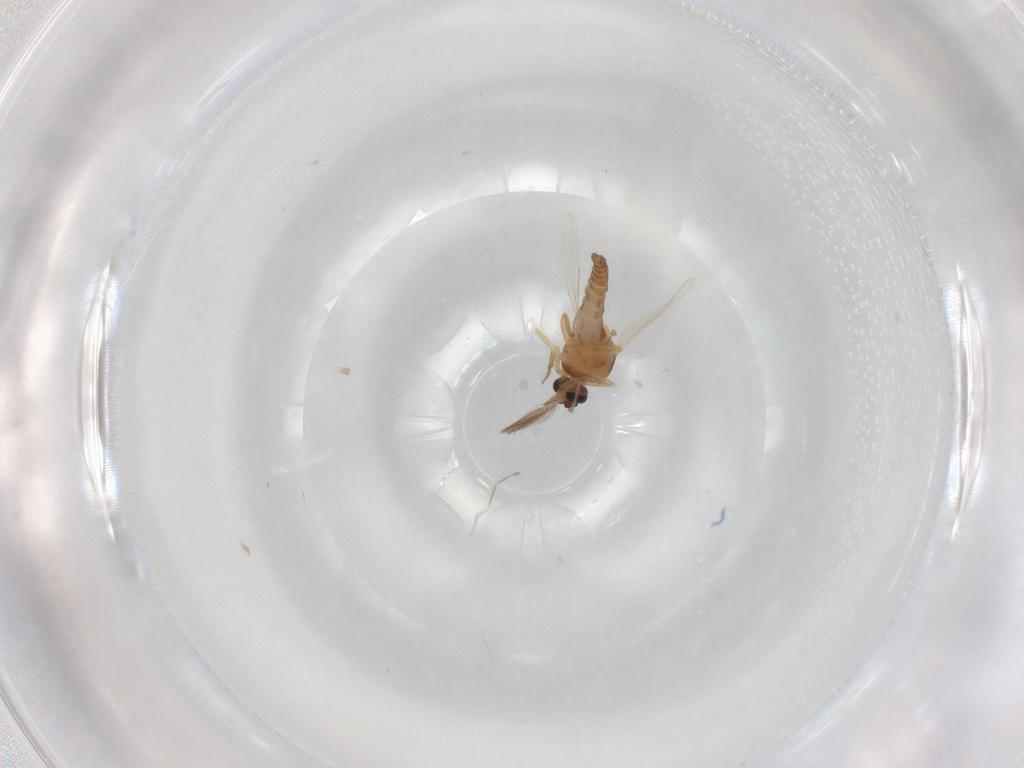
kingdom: Animalia
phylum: Arthropoda
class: Insecta
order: Diptera
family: Ceratopogonidae
